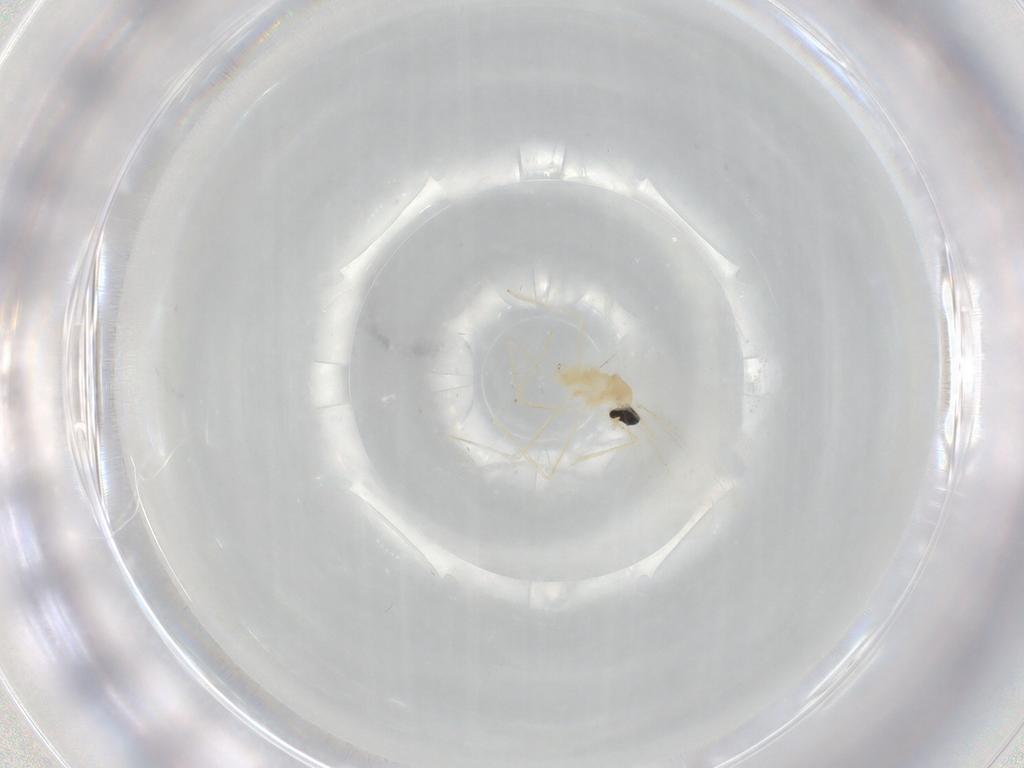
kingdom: Animalia
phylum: Arthropoda
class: Insecta
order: Diptera
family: Cecidomyiidae
